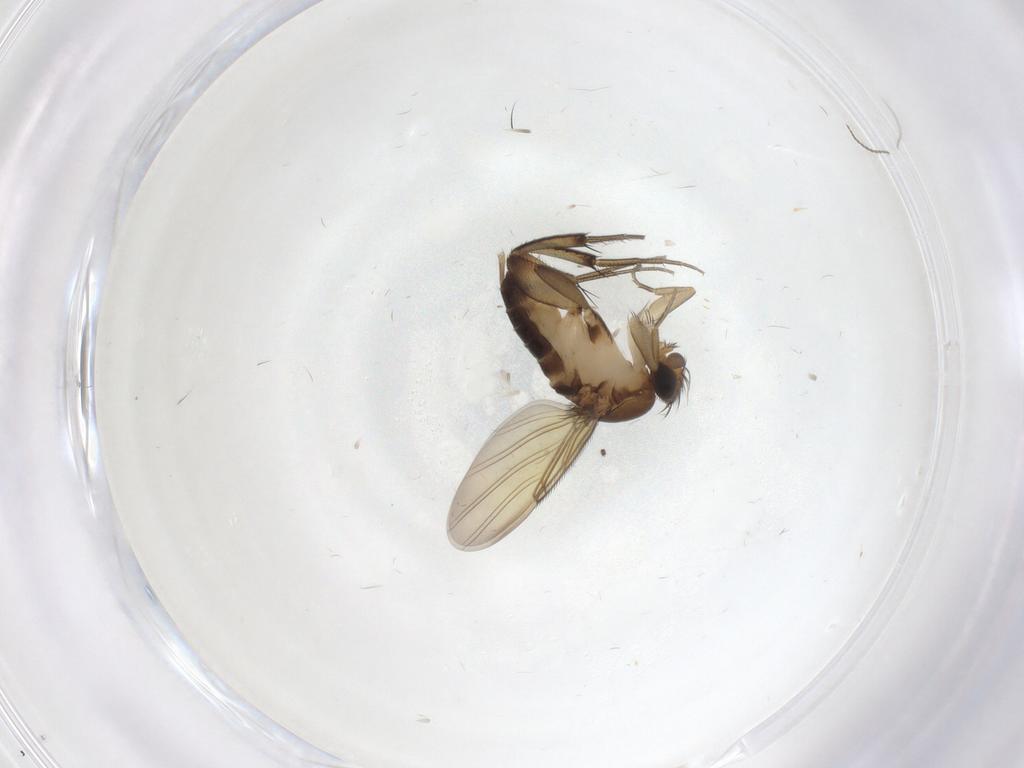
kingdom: Animalia
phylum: Arthropoda
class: Insecta
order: Diptera
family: Phoridae
